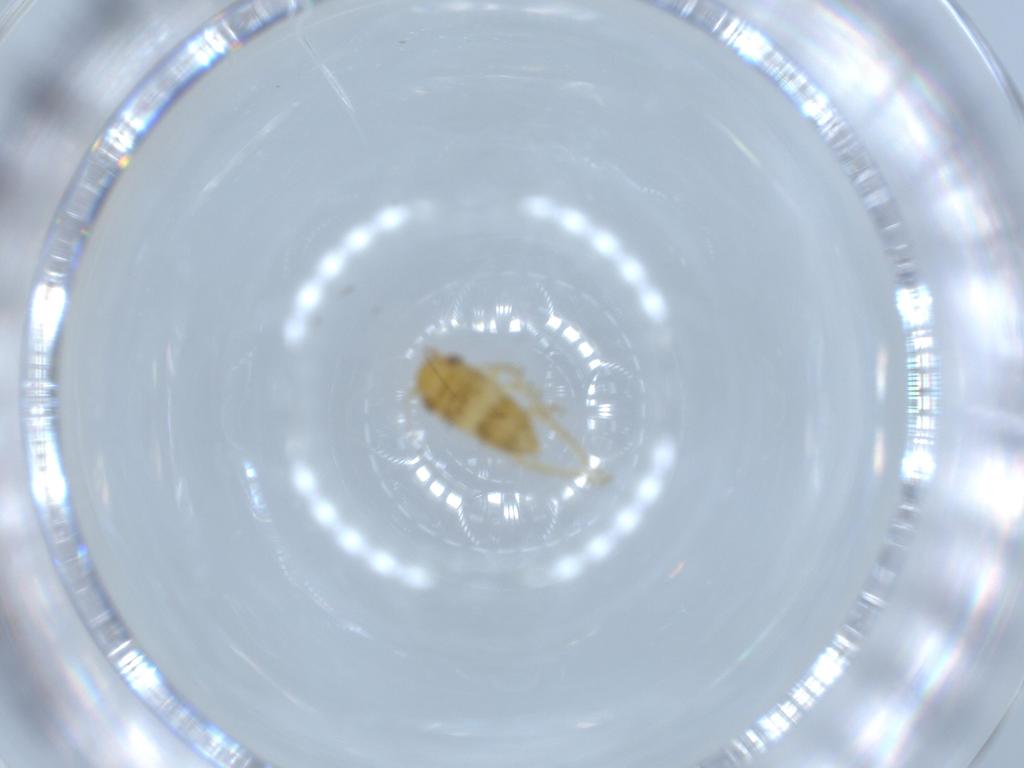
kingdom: Animalia
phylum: Arthropoda
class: Insecta
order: Hemiptera
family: Cicadellidae
